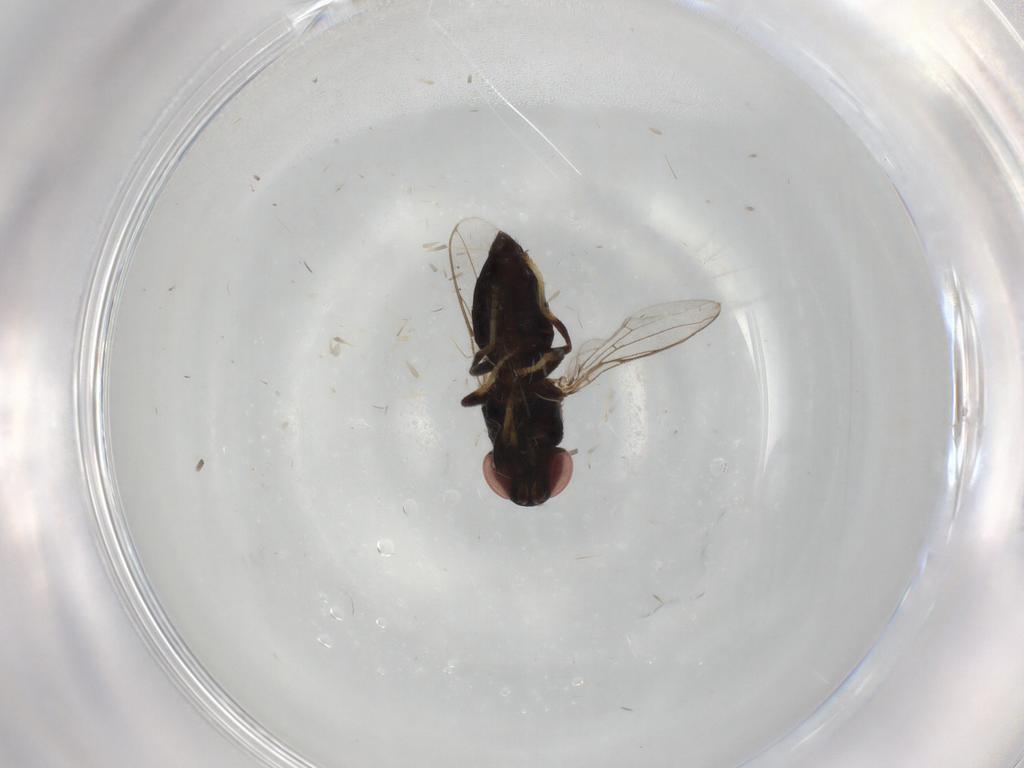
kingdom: Animalia
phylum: Arthropoda
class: Insecta
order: Diptera
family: Chloropidae
